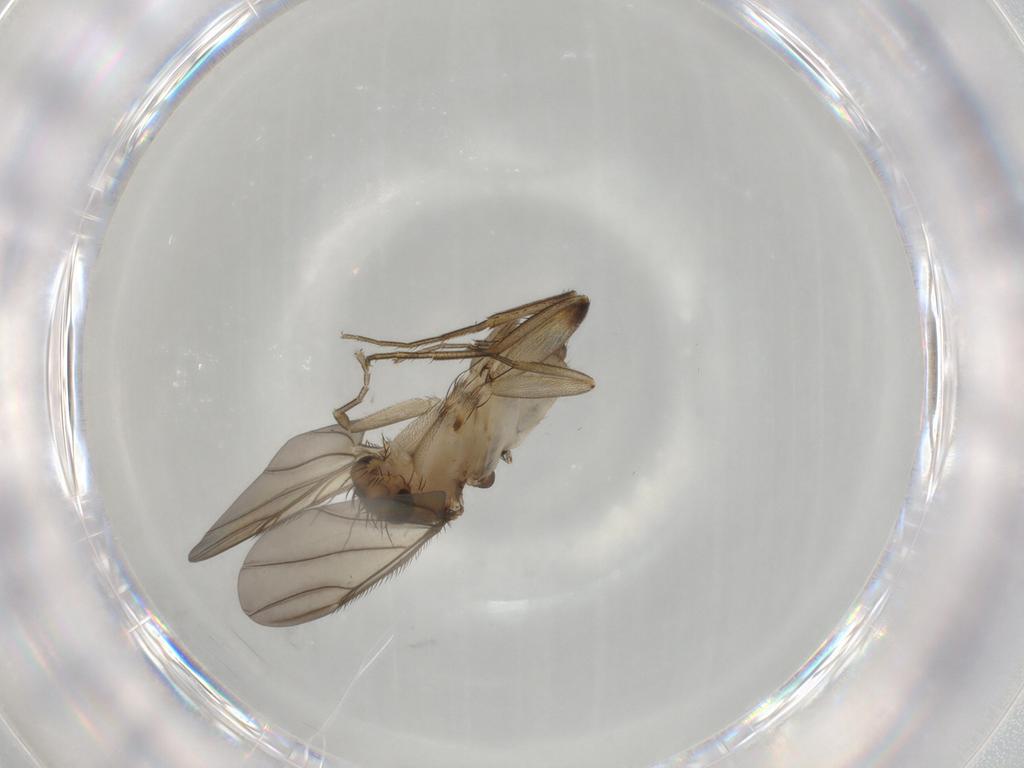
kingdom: Animalia
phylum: Arthropoda
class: Insecta
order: Diptera
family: Phoridae
